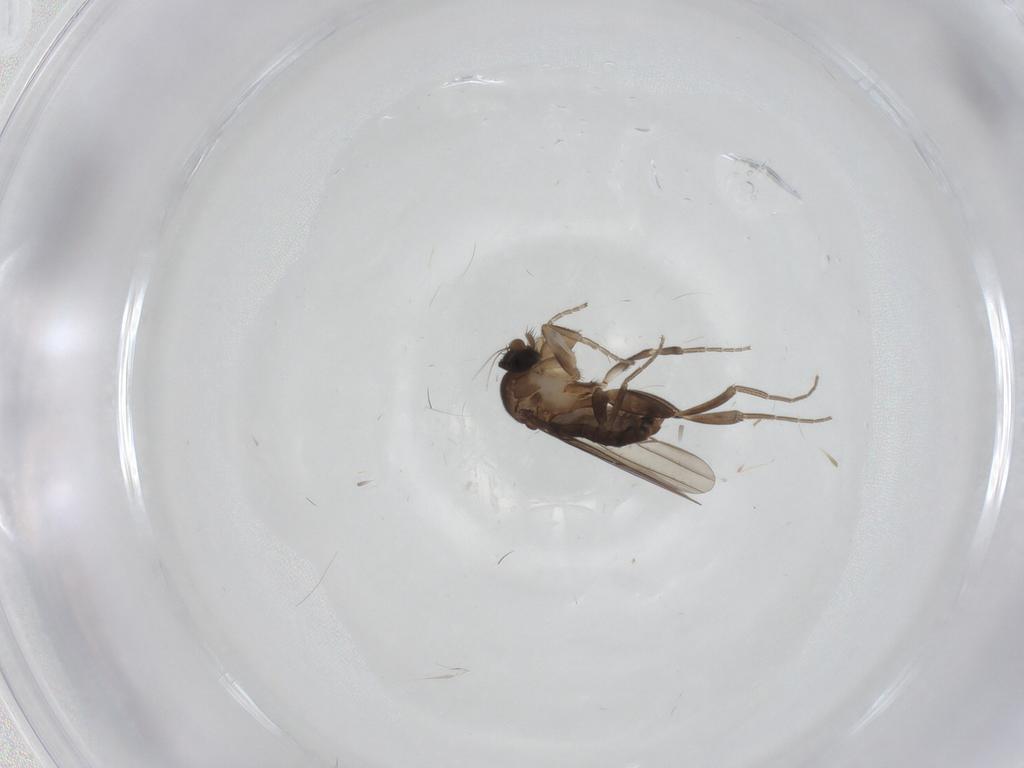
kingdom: Animalia
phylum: Arthropoda
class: Insecta
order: Diptera
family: Phoridae
